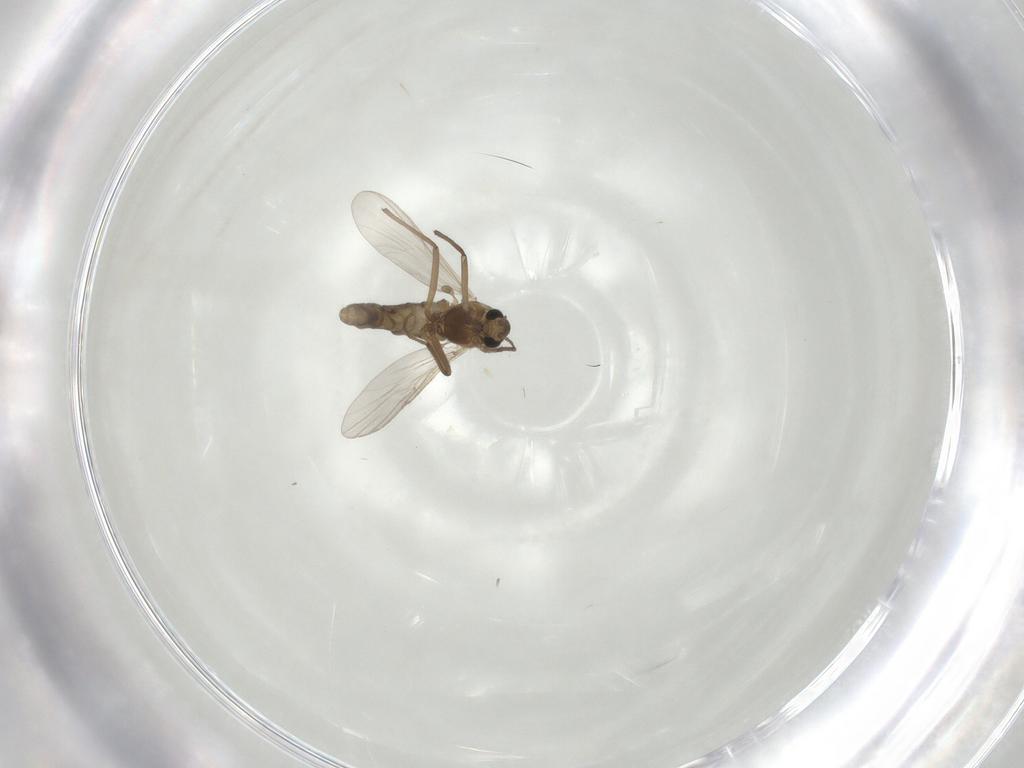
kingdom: Animalia
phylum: Arthropoda
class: Insecta
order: Diptera
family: Chironomidae
